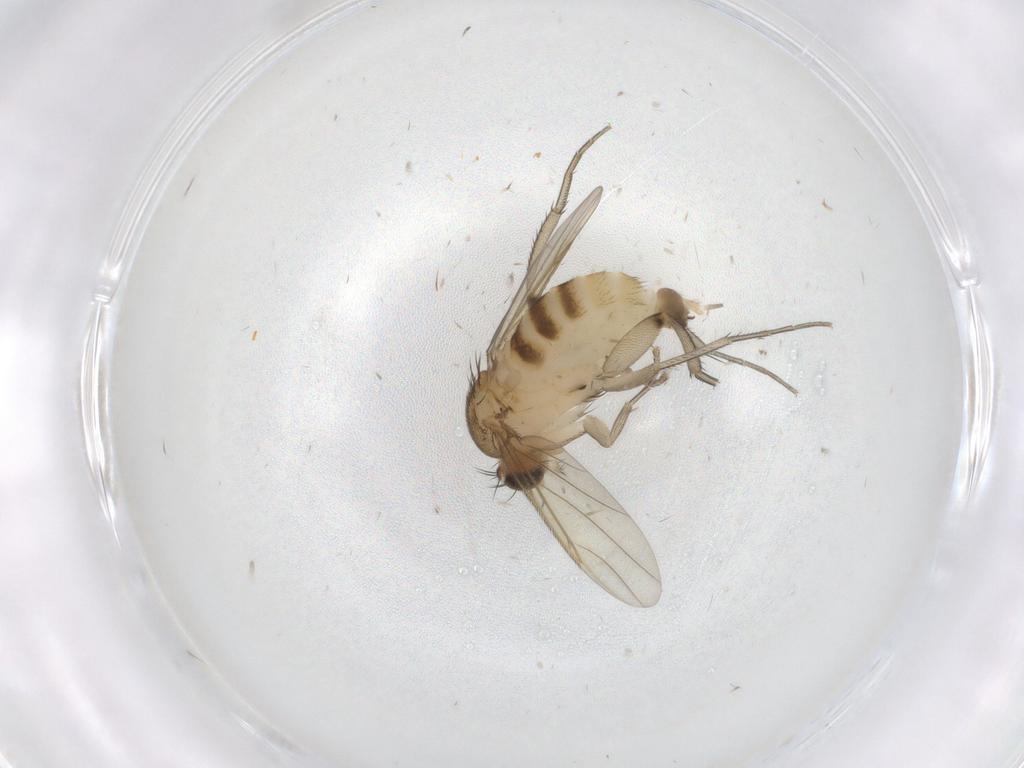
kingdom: Animalia
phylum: Arthropoda
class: Insecta
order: Diptera
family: Phoridae
